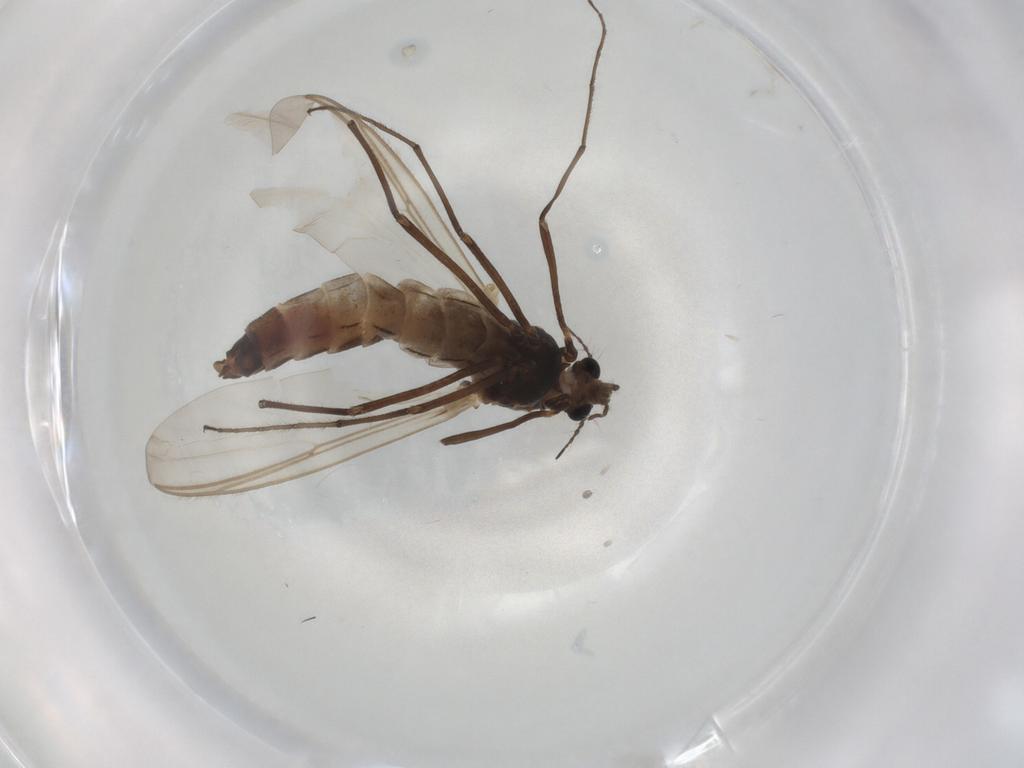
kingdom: Animalia
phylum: Arthropoda
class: Insecta
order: Diptera
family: Chironomidae
